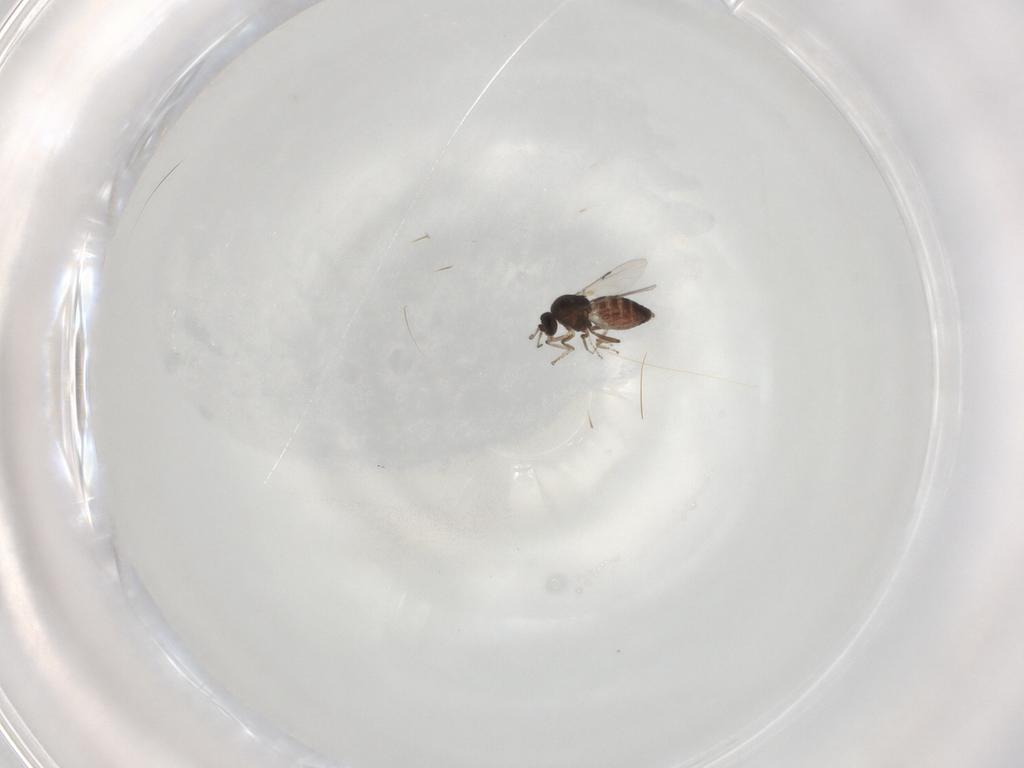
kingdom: Animalia
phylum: Arthropoda
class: Insecta
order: Diptera
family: Ceratopogonidae
